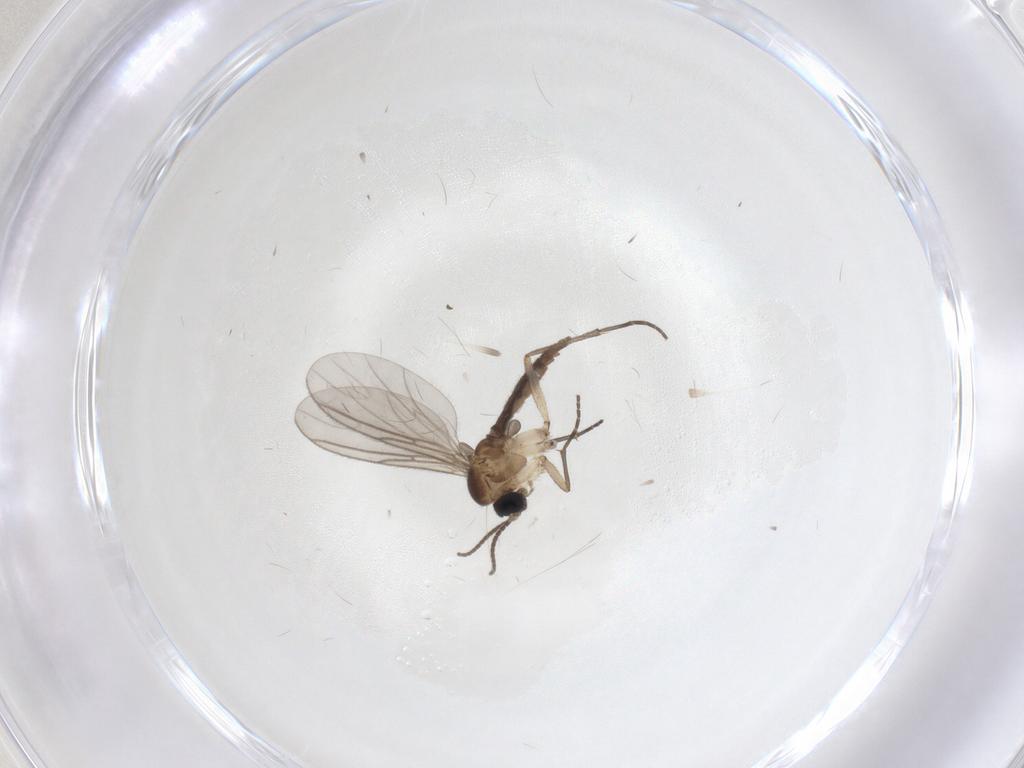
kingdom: Animalia
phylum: Arthropoda
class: Insecta
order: Diptera
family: Sciaridae
